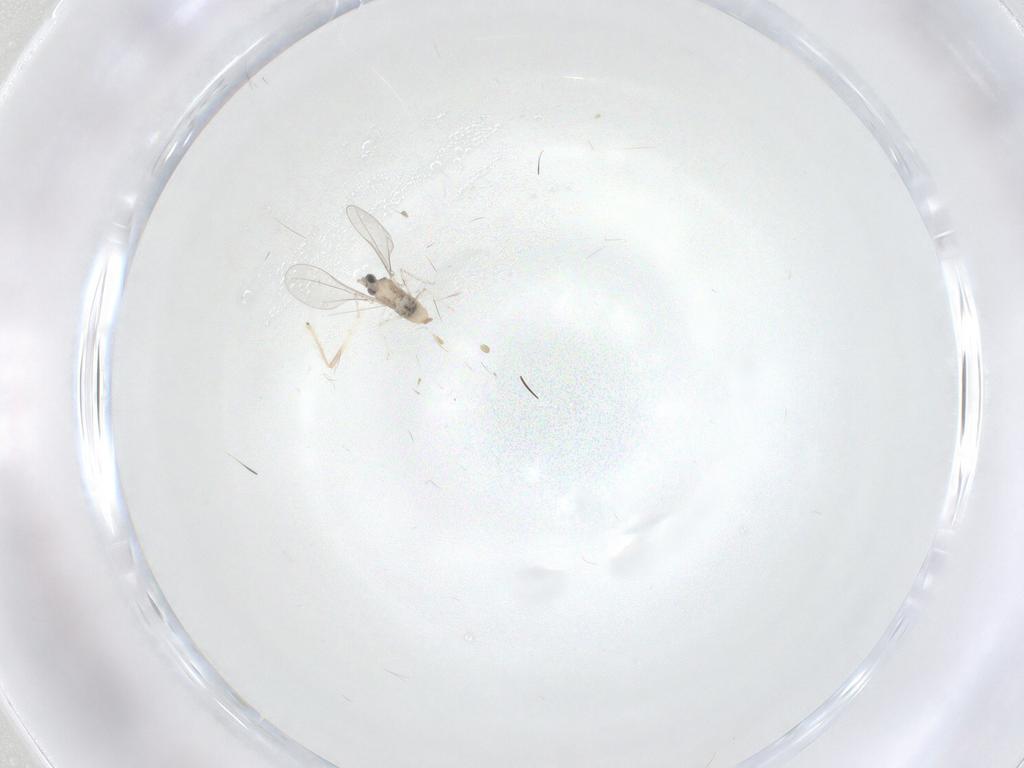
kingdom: Animalia
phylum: Arthropoda
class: Insecta
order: Diptera
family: Cecidomyiidae
